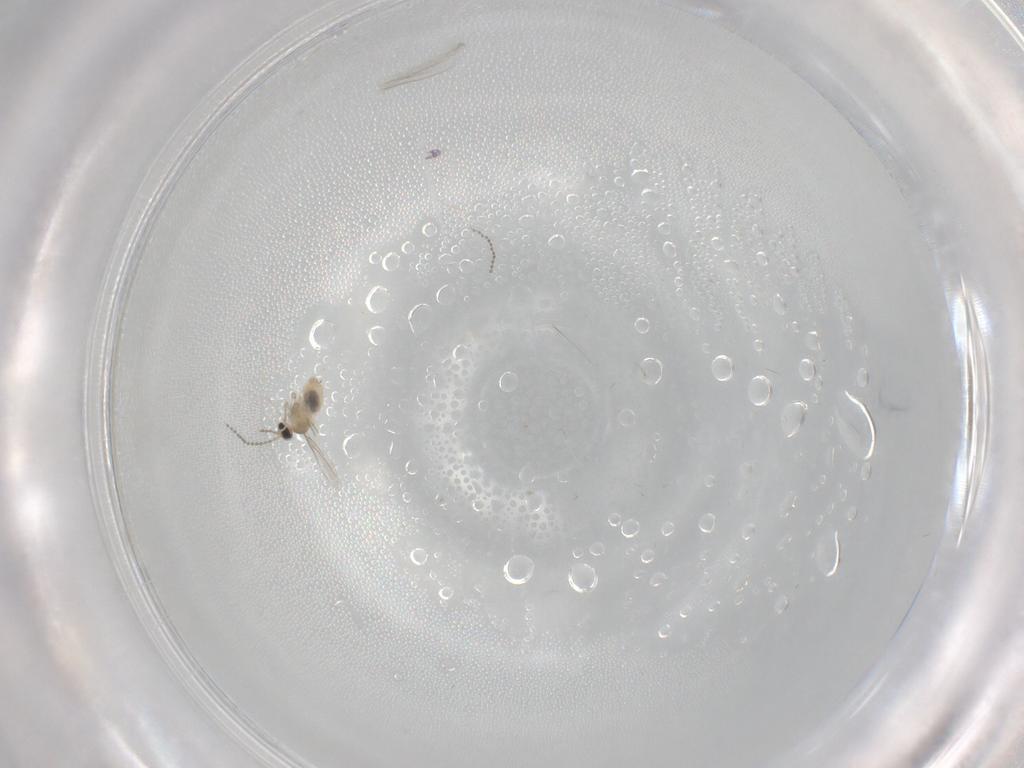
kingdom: Animalia
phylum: Arthropoda
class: Insecta
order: Diptera
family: Cecidomyiidae
